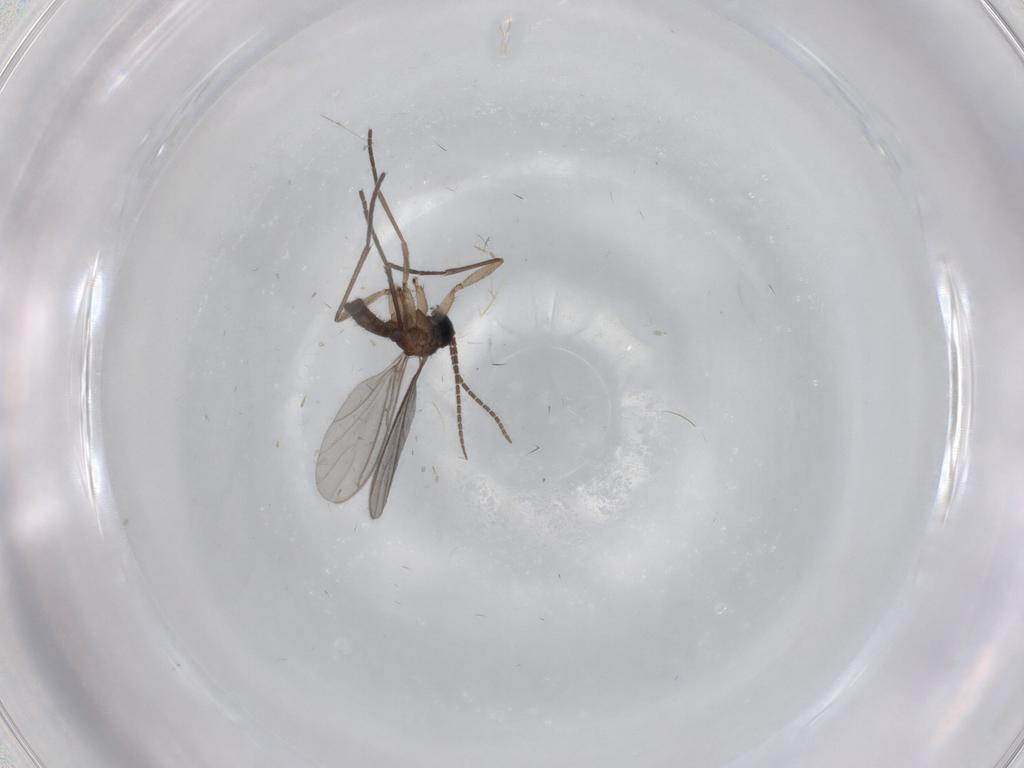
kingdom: Animalia
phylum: Arthropoda
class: Insecta
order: Diptera
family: Sciaridae
